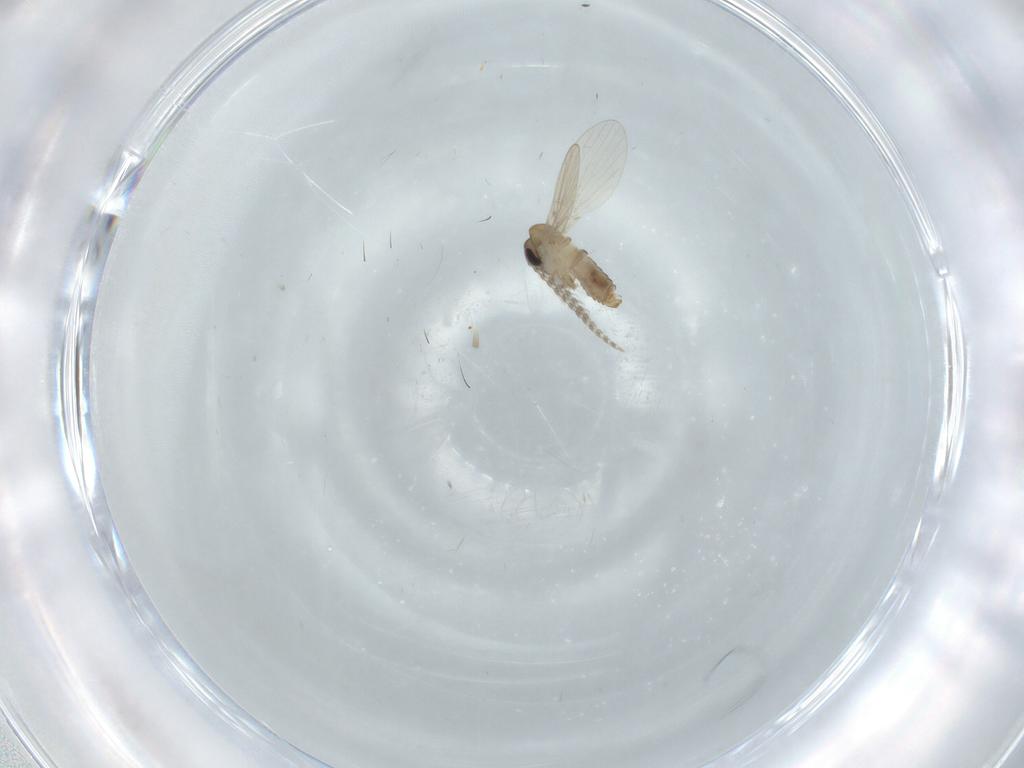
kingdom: Animalia
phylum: Arthropoda
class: Insecta
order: Diptera
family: Psychodidae
